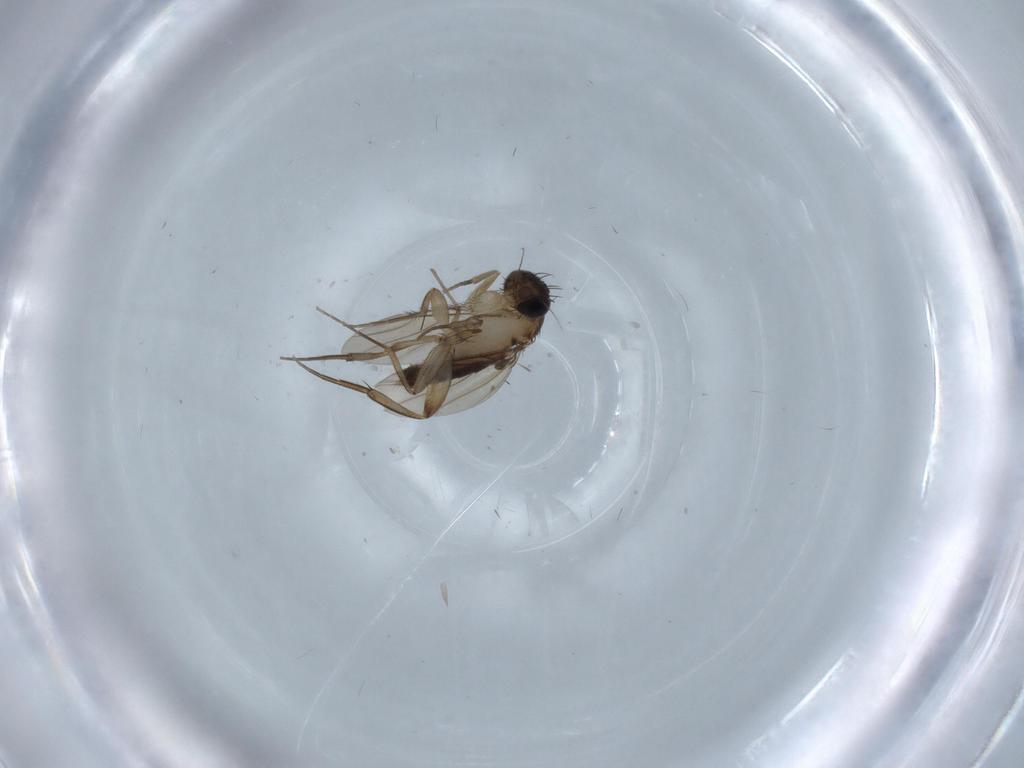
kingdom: Animalia
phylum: Arthropoda
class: Insecta
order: Diptera
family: Phoridae
